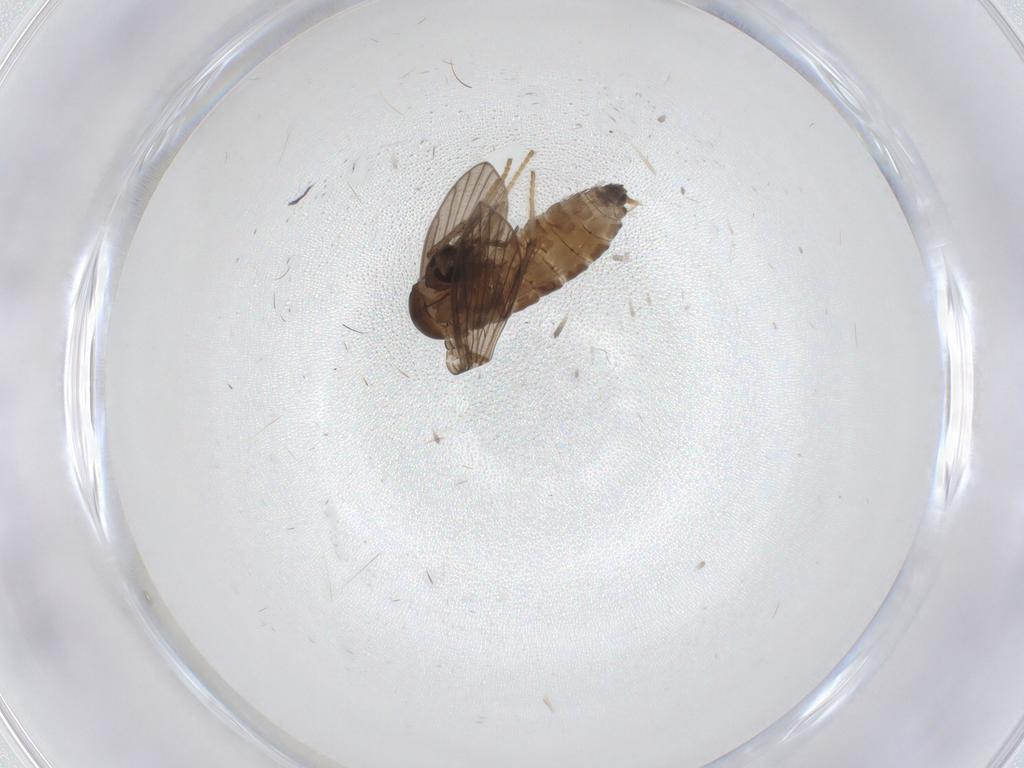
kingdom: Animalia
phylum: Arthropoda
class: Insecta
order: Diptera
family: Psychodidae
